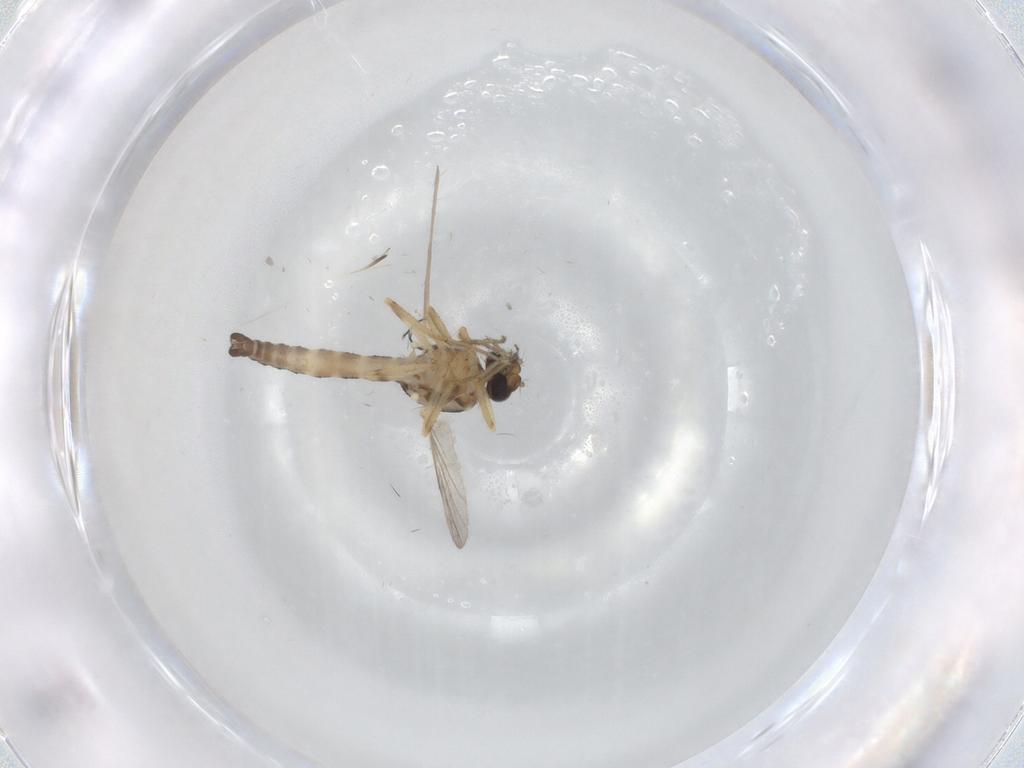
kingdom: Animalia
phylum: Arthropoda
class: Insecta
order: Diptera
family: Ceratopogonidae
